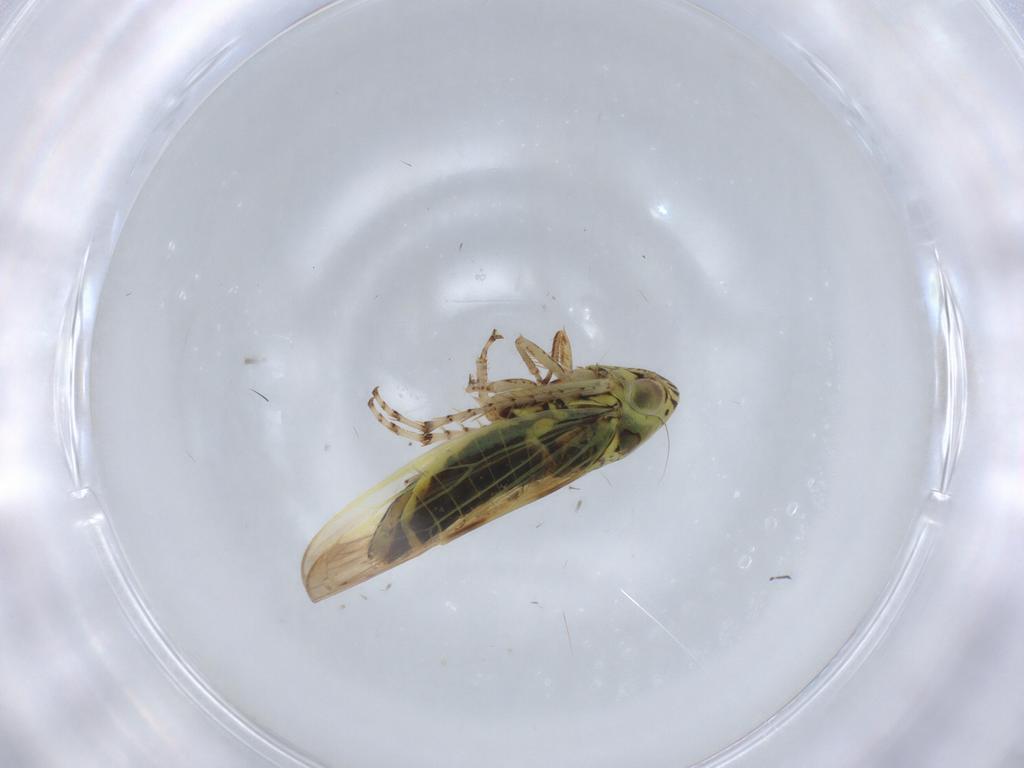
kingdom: Animalia
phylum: Arthropoda
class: Insecta
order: Hemiptera
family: Cicadellidae
